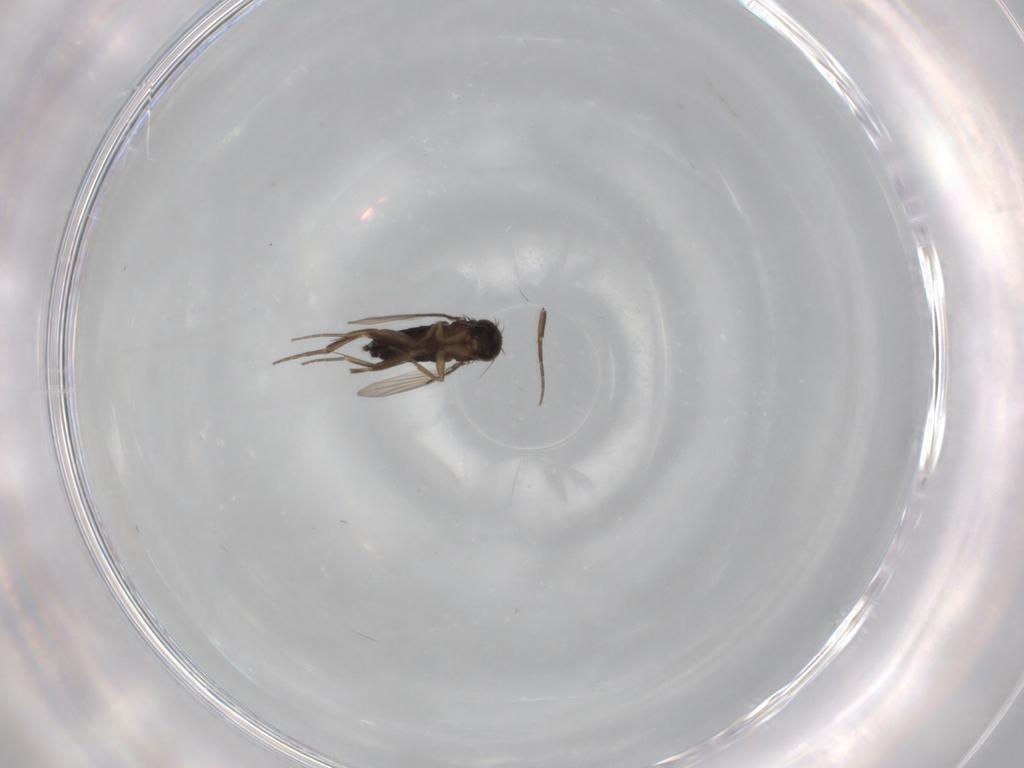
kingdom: Animalia
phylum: Arthropoda
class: Insecta
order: Diptera
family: Phoridae
